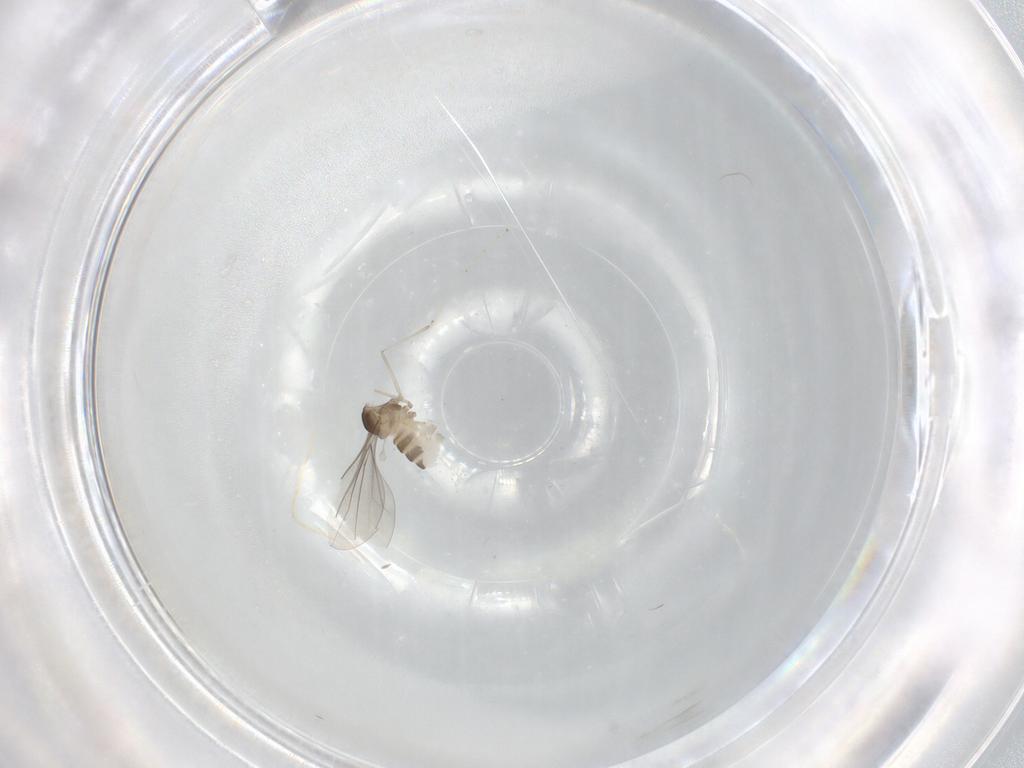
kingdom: Animalia
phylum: Arthropoda
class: Insecta
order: Diptera
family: Cecidomyiidae
